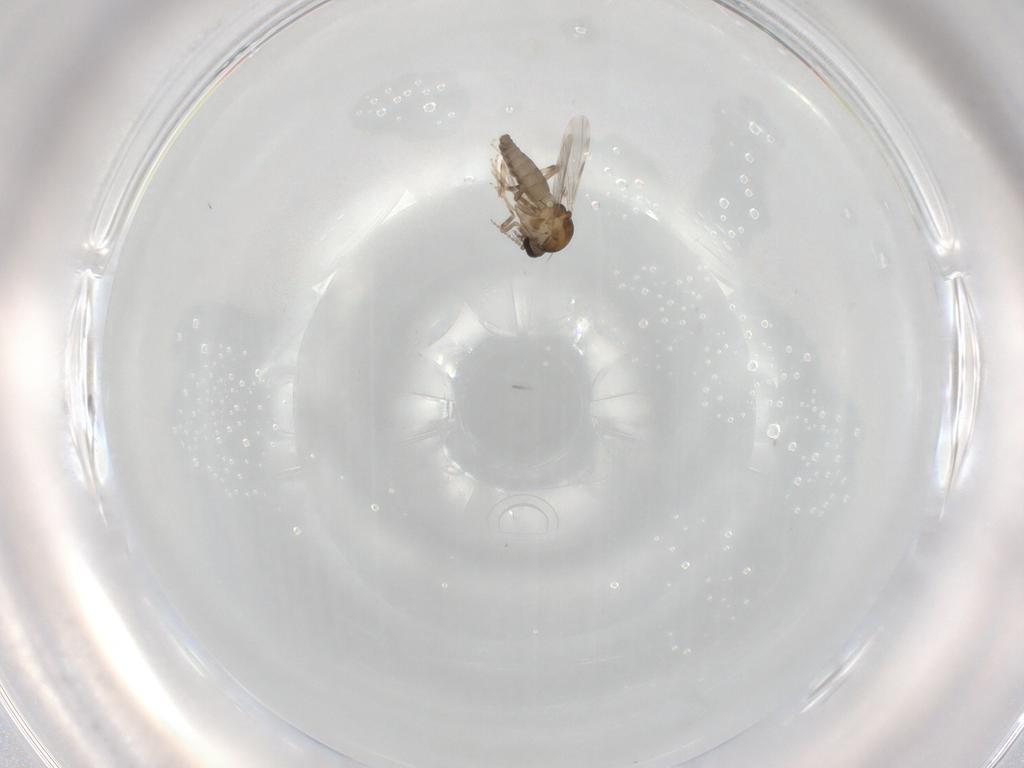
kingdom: Animalia
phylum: Arthropoda
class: Insecta
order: Diptera
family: Ceratopogonidae
